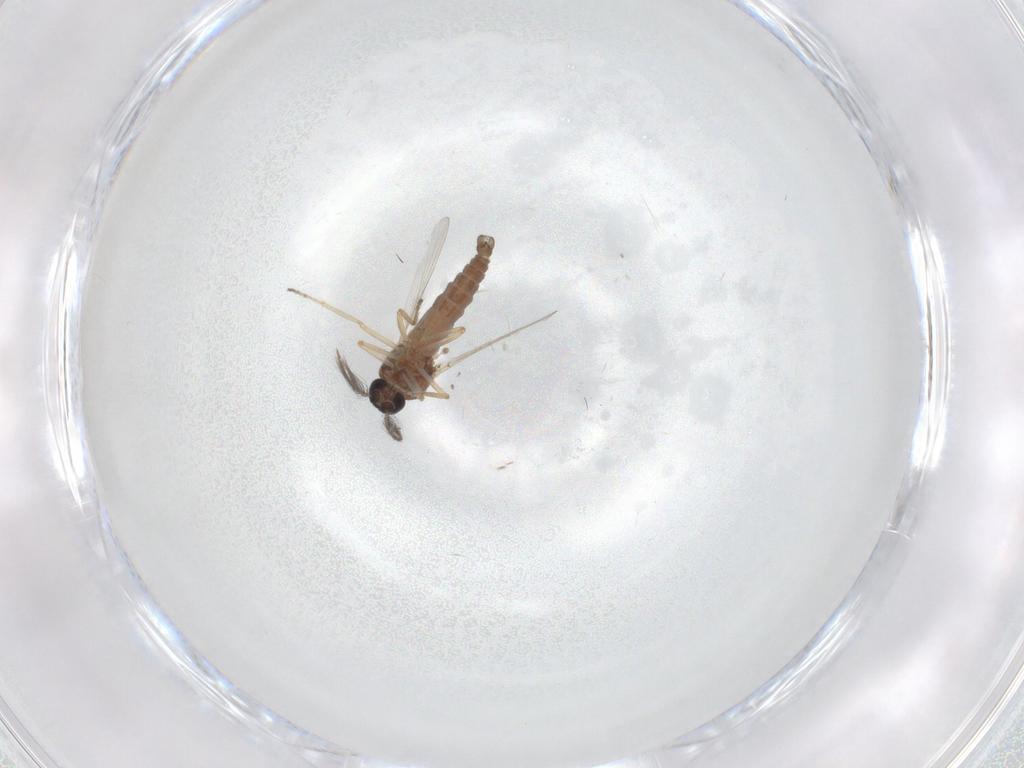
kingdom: Animalia
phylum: Arthropoda
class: Insecta
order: Diptera
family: Ceratopogonidae
